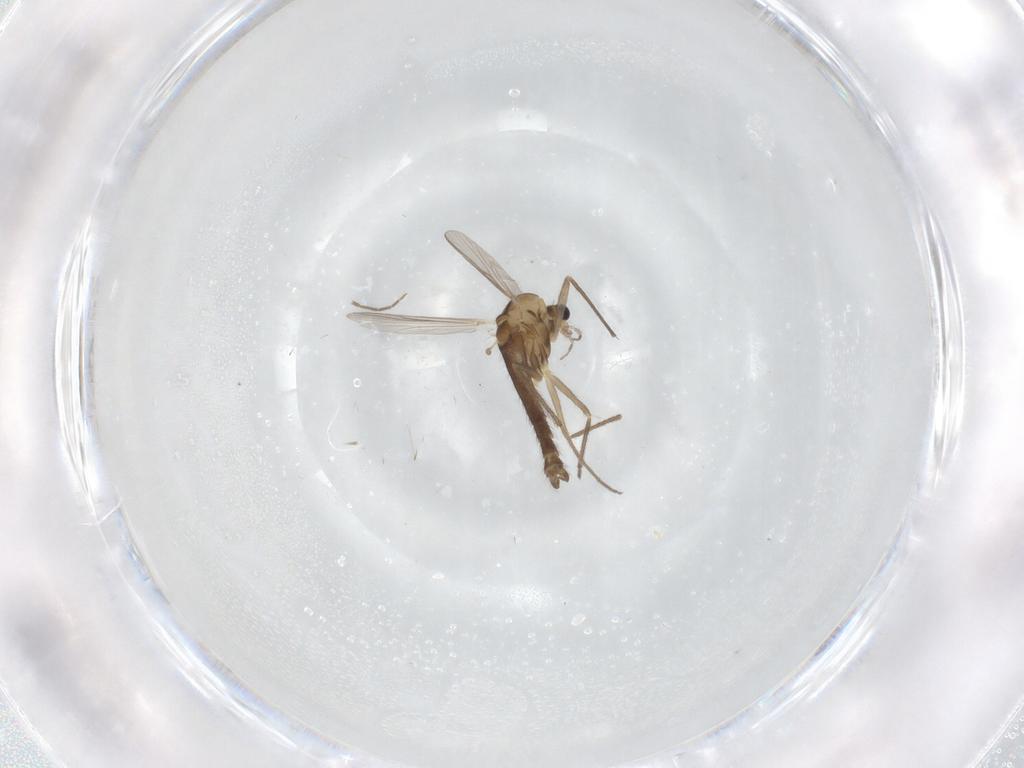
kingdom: Animalia
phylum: Arthropoda
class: Insecta
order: Diptera
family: Chironomidae
